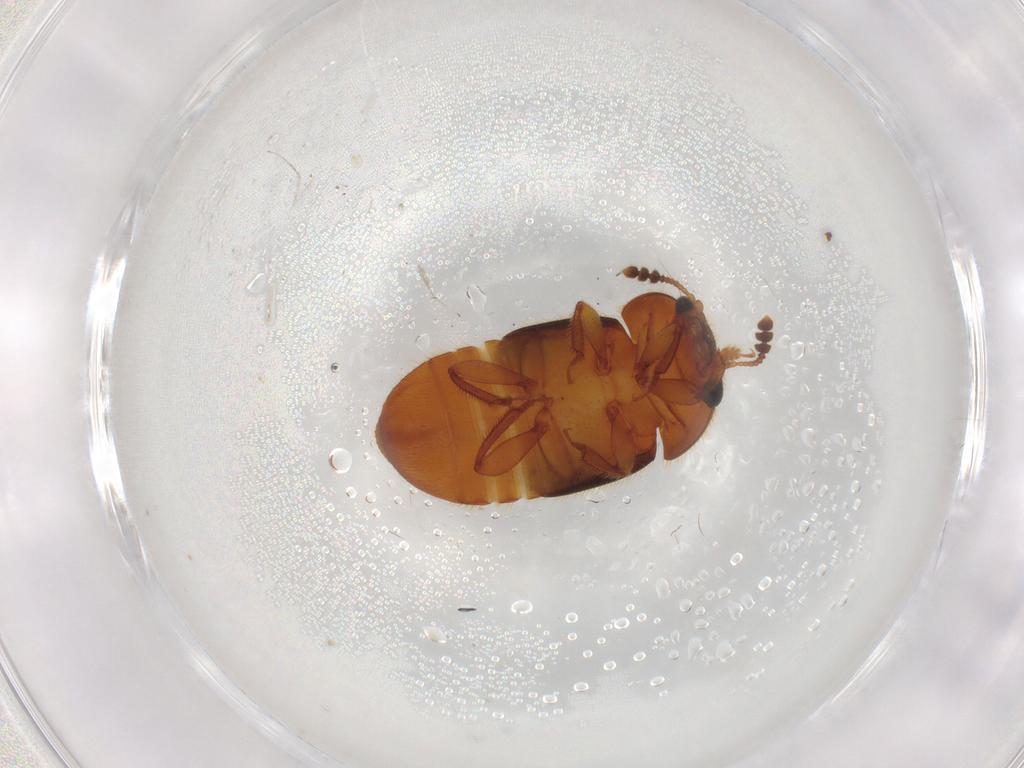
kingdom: Animalia
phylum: Arthropoda
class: Insecta
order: Coleoptera
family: Nitidulidae
